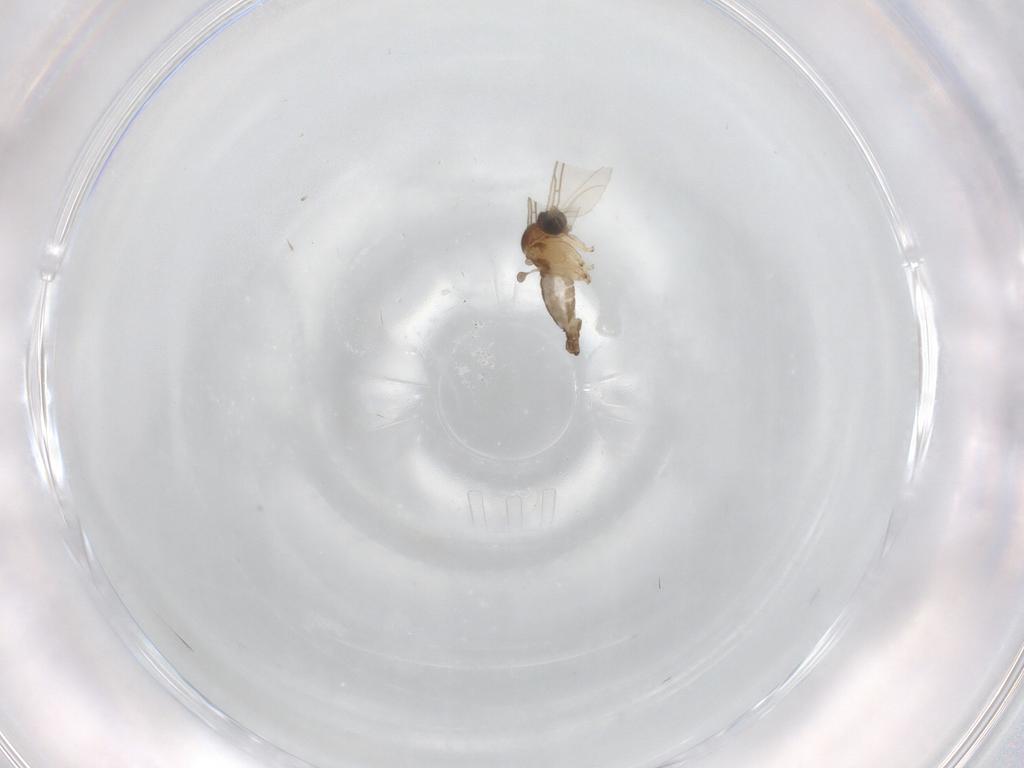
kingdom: Animalia
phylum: Arthropoda
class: Insecta
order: Diptera
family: Sciaridae
